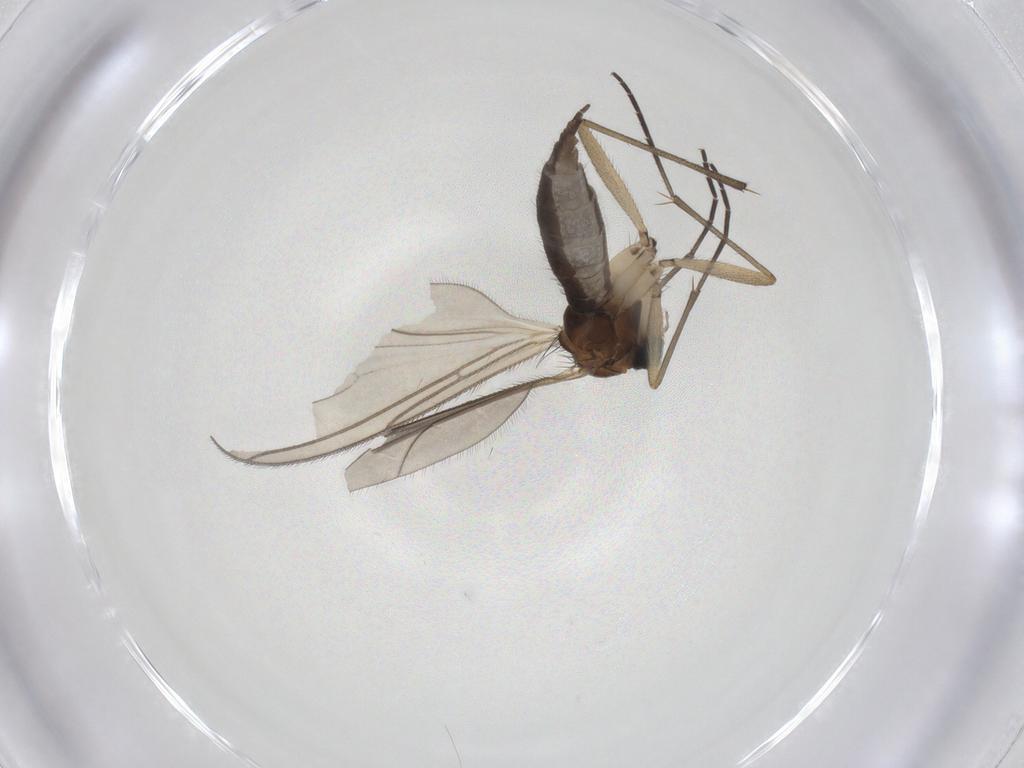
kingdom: Animalia
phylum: Arthropoda
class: Insecta
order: Diptera
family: Sciaridae
